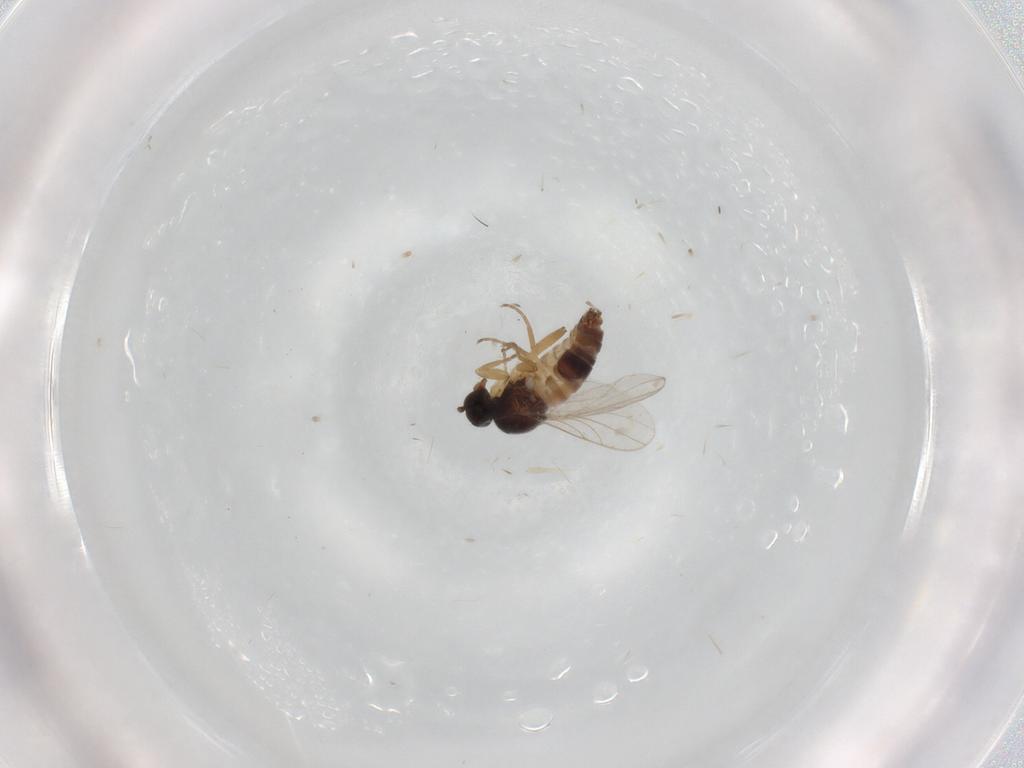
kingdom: Animalia
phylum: Arthropoda
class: Insecta
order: Diptera
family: Hybotidae
